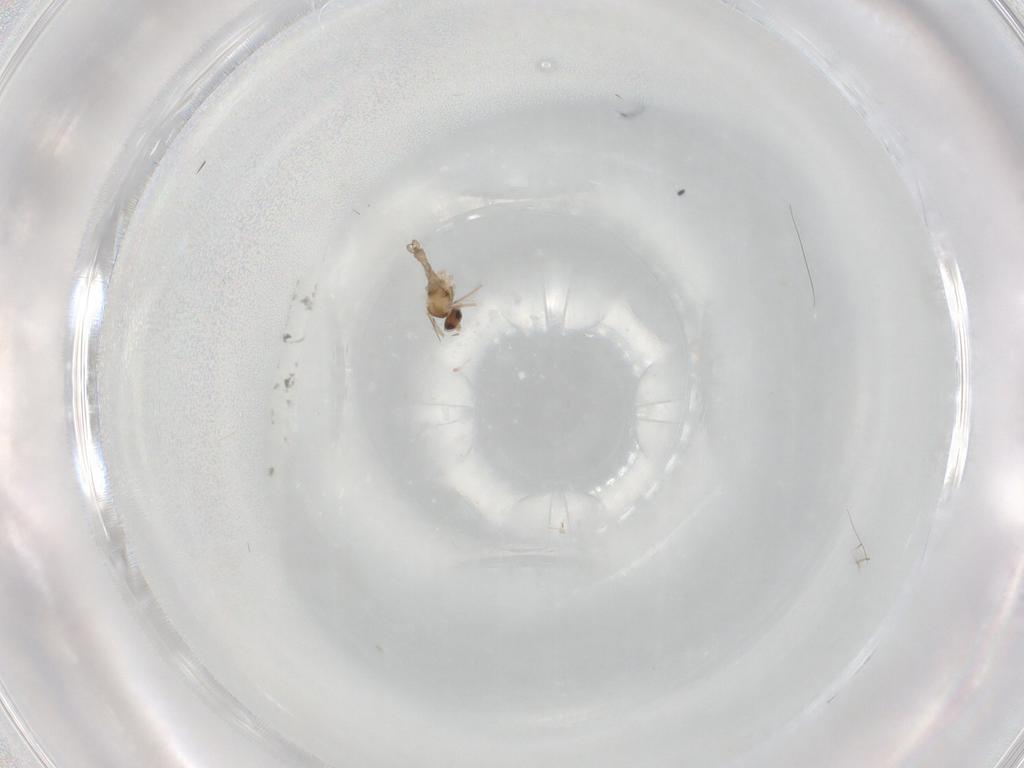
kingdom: Animalia
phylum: Arthropoda
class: Insecta
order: Diptera
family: Cecidomyiidae
